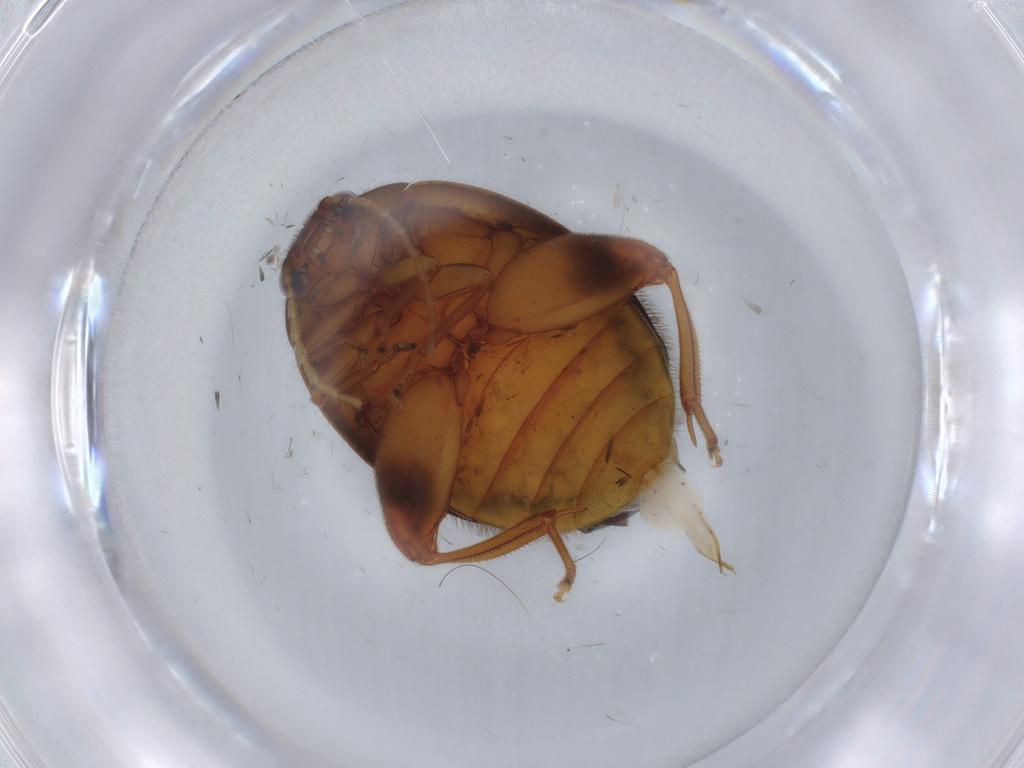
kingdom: Animalia
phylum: Arthropoda
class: Insecta
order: Coleoptera
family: Scirtidae
